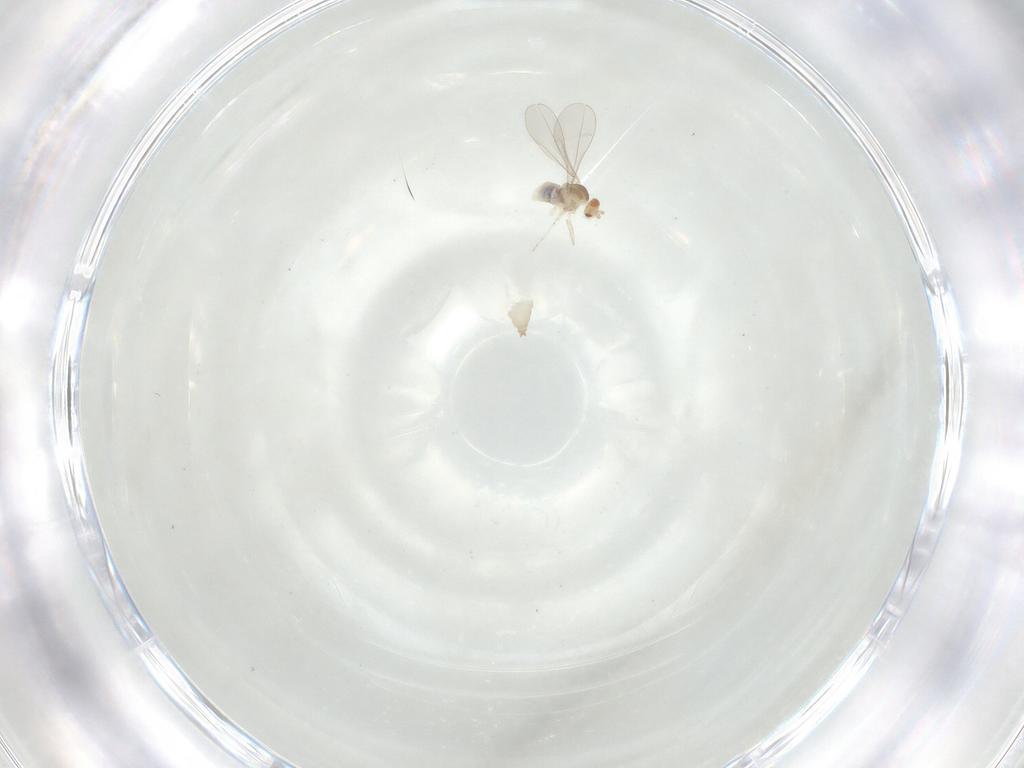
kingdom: Animalia
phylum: Arthropoda
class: Insecta
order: Diptera
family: Cecidomyiidae
